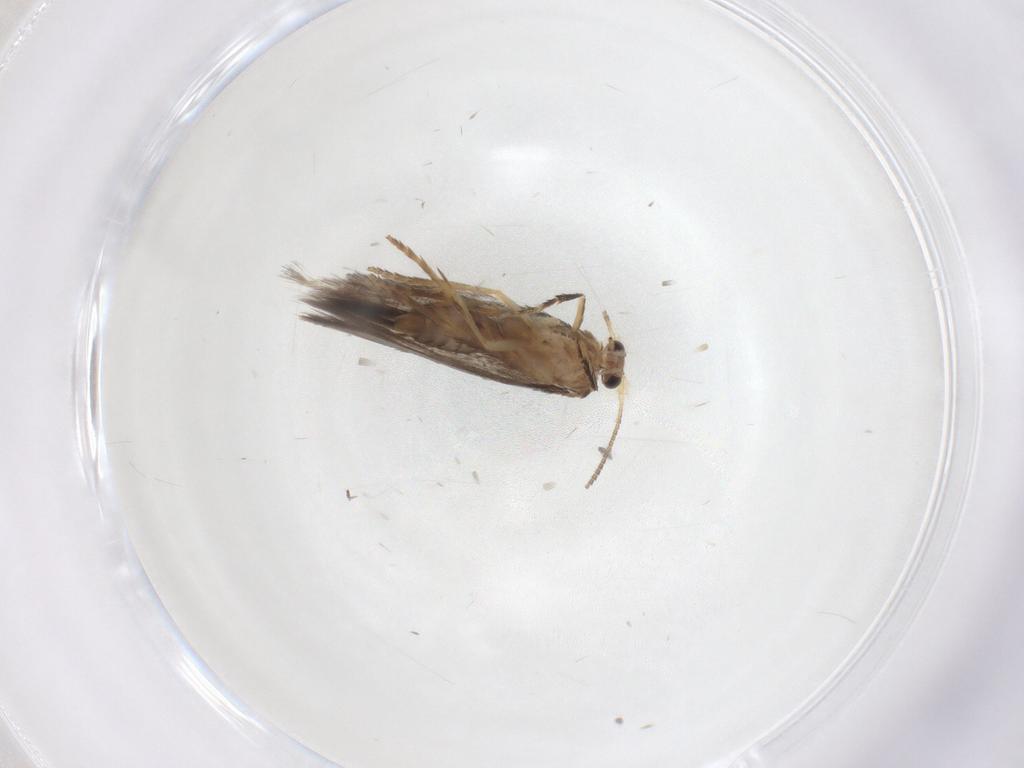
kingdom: Animalia
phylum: Arthropoda
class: Insecta
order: Lepidoptera
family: Nepticulidae
